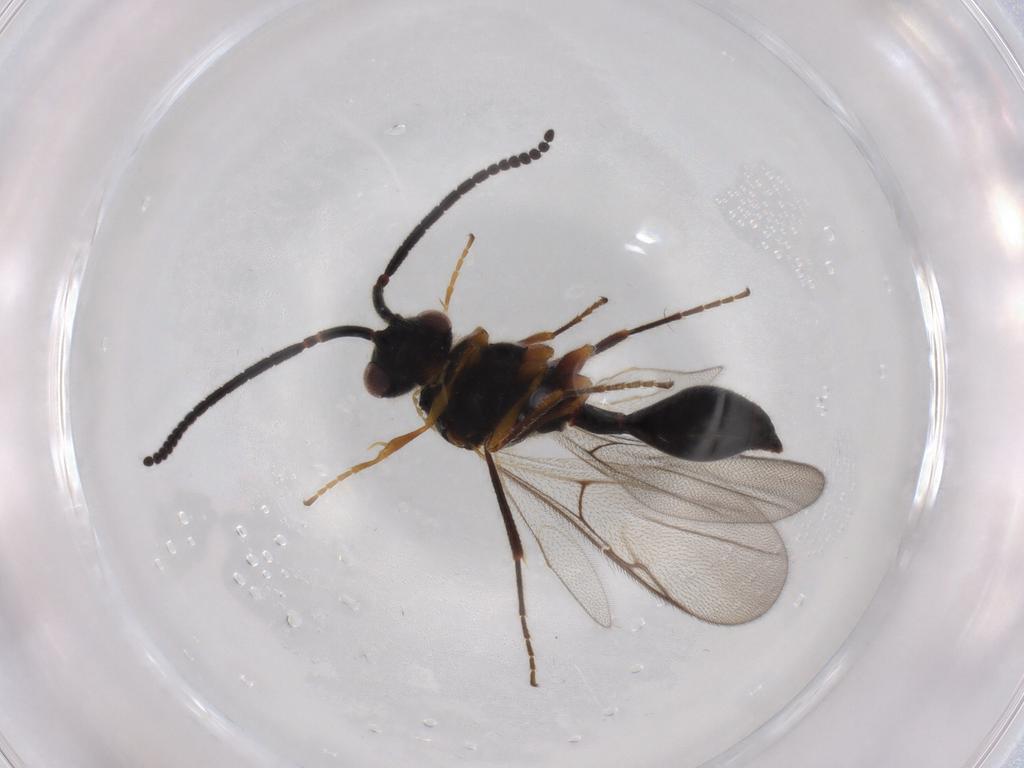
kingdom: Animalia
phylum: Arthropoda
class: Insecta
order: Hymenoptera
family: Diapriidae
